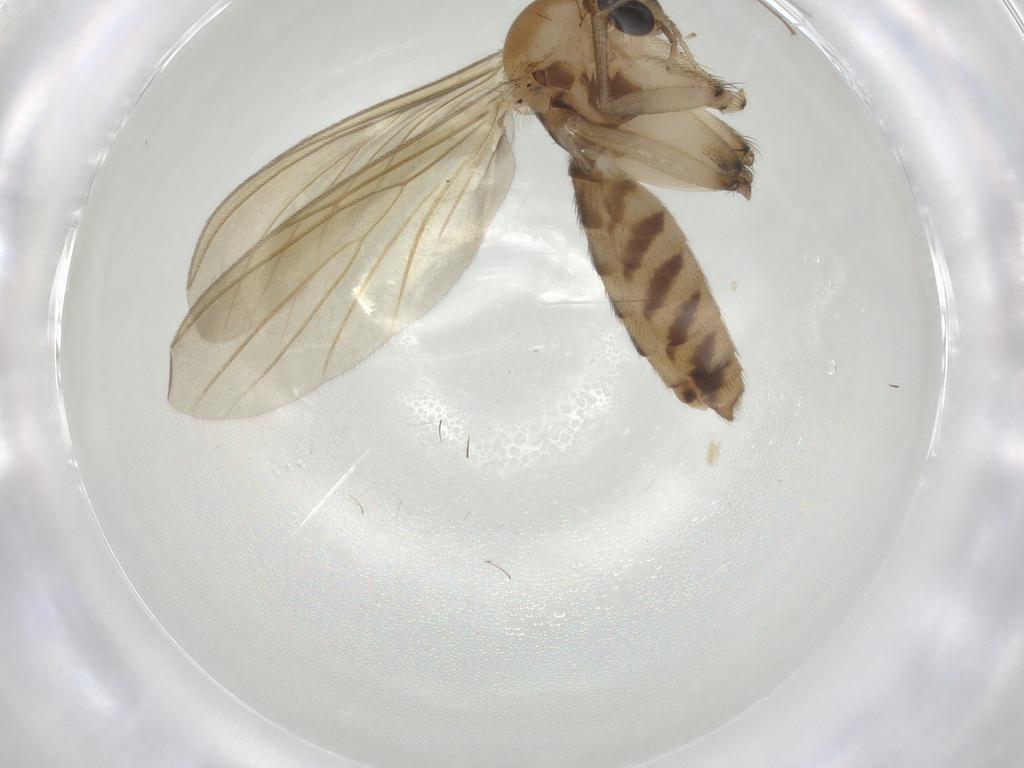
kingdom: Animalia
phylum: Arthropoda
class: Insecta
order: Diptera
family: Mycetophilidae
